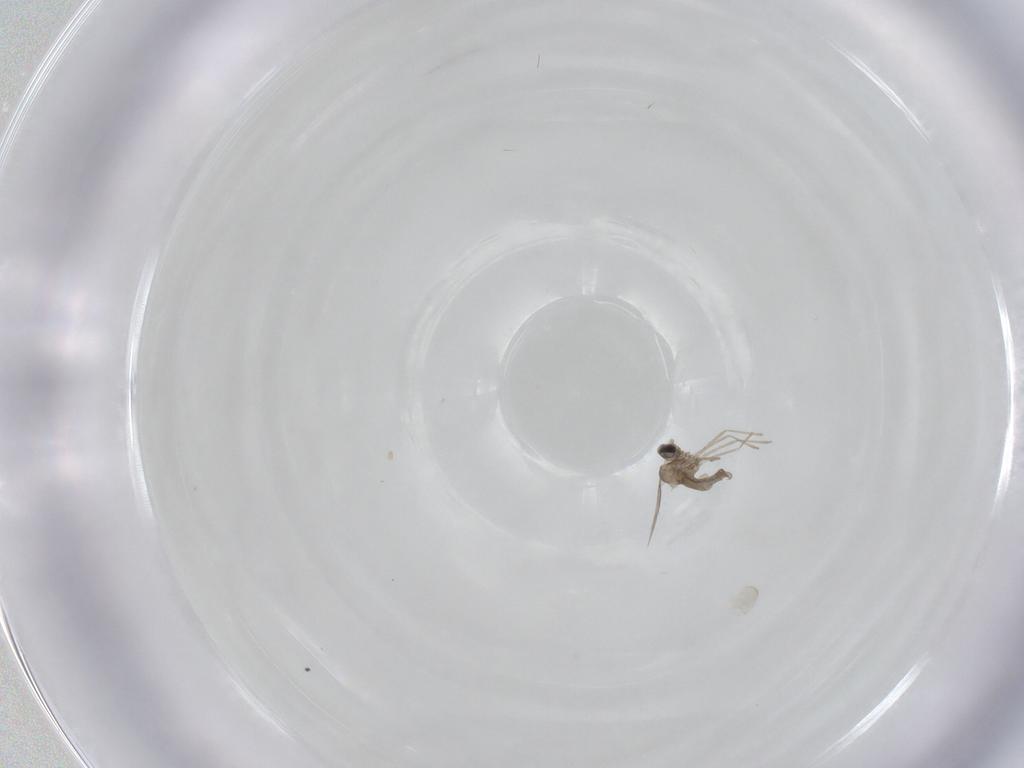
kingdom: Animalia
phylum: Arthropoda
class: Insecta
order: Diptera
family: Cecidomyiidae
